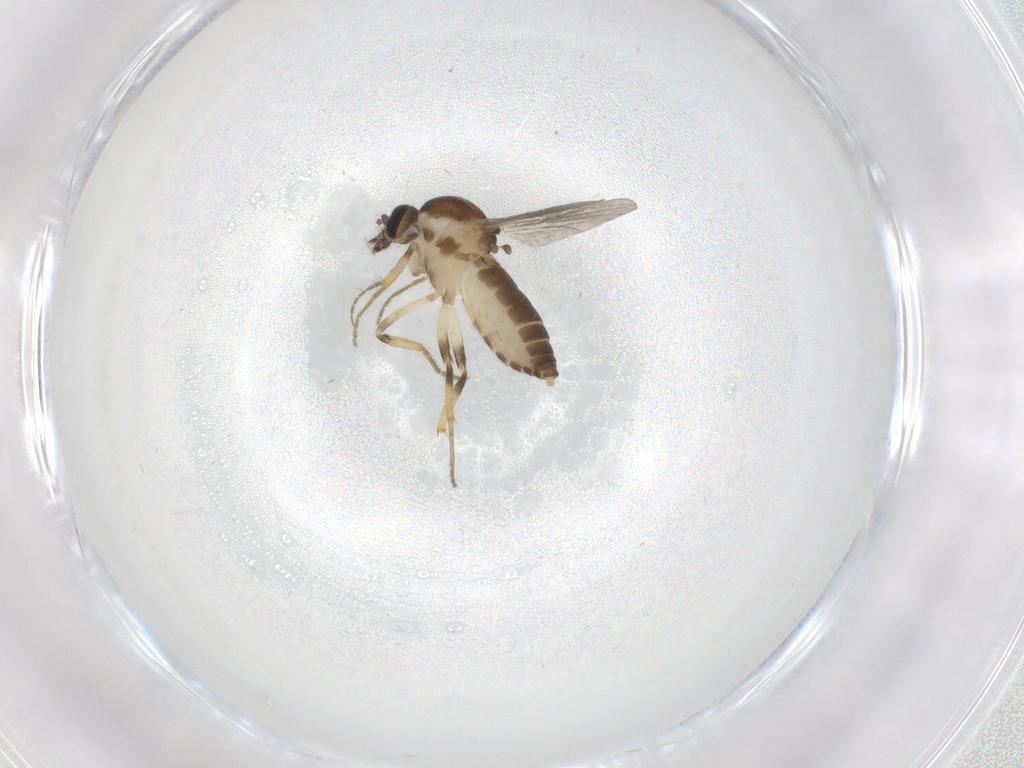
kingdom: Animalia
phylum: Arthropoda
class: Insecta
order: Diptera
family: Ceratopogonidae
